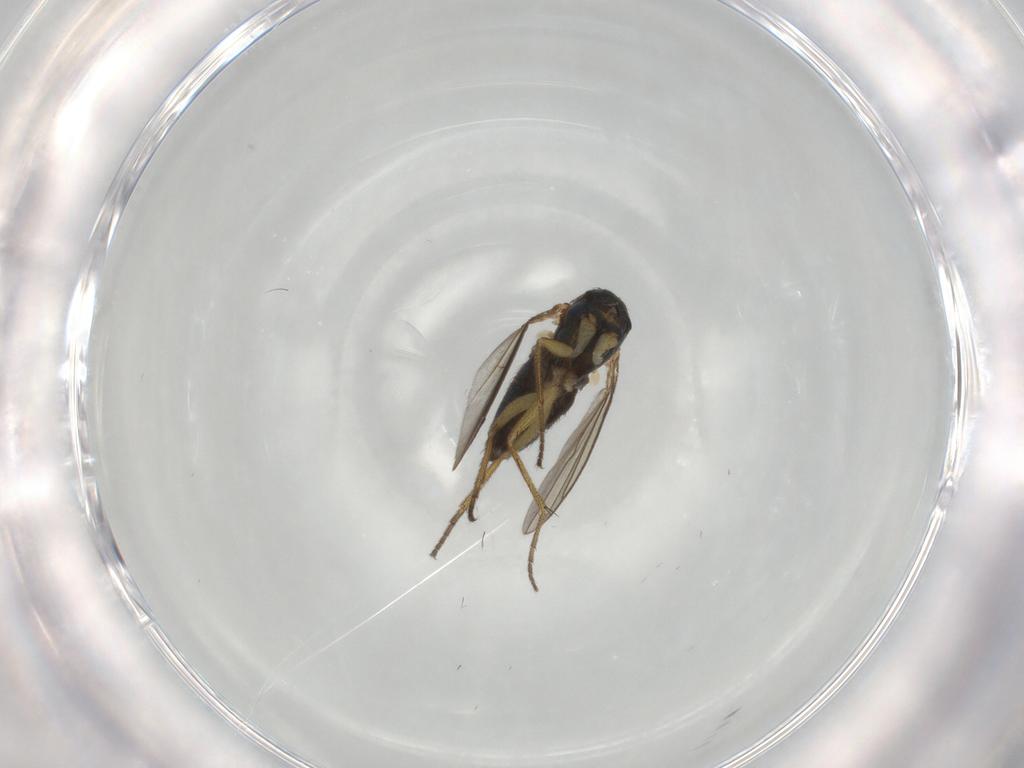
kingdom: Animalia
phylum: Arthropoda
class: Insecta
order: Diptera
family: Dolichopodidae
